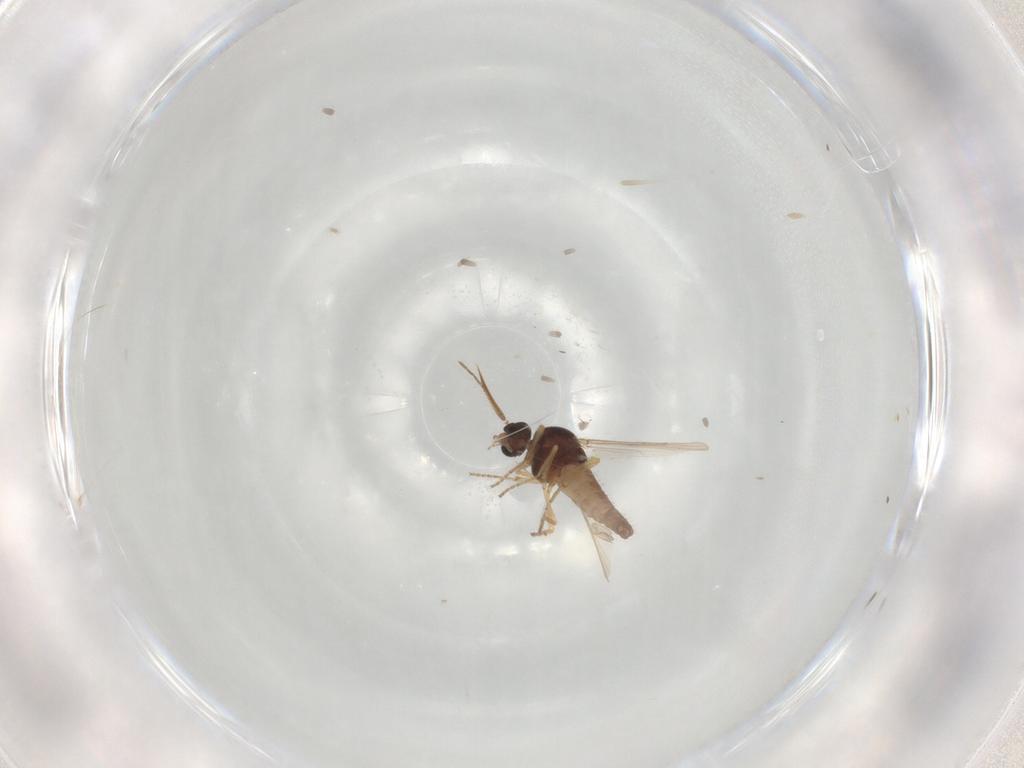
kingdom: Animalia
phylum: Arthropoda
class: Insecta
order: Diptera
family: Ceratopogonidae
